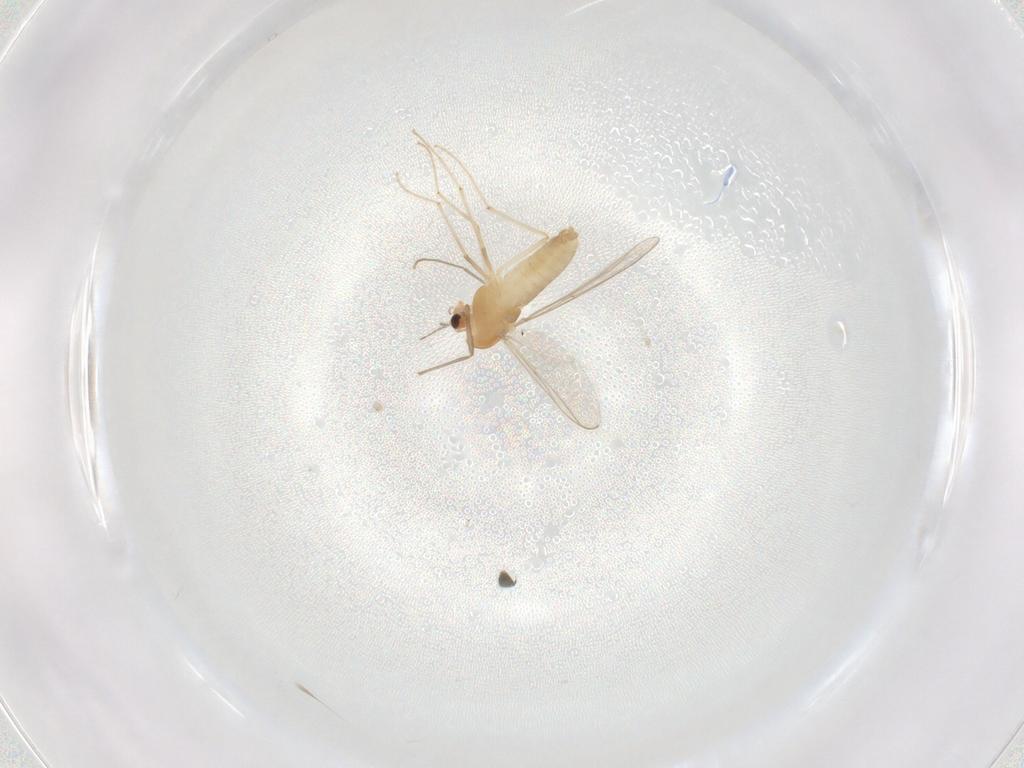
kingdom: Animalia
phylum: Arthropoda
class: Insecta
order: Diptera
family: Chironomidae
